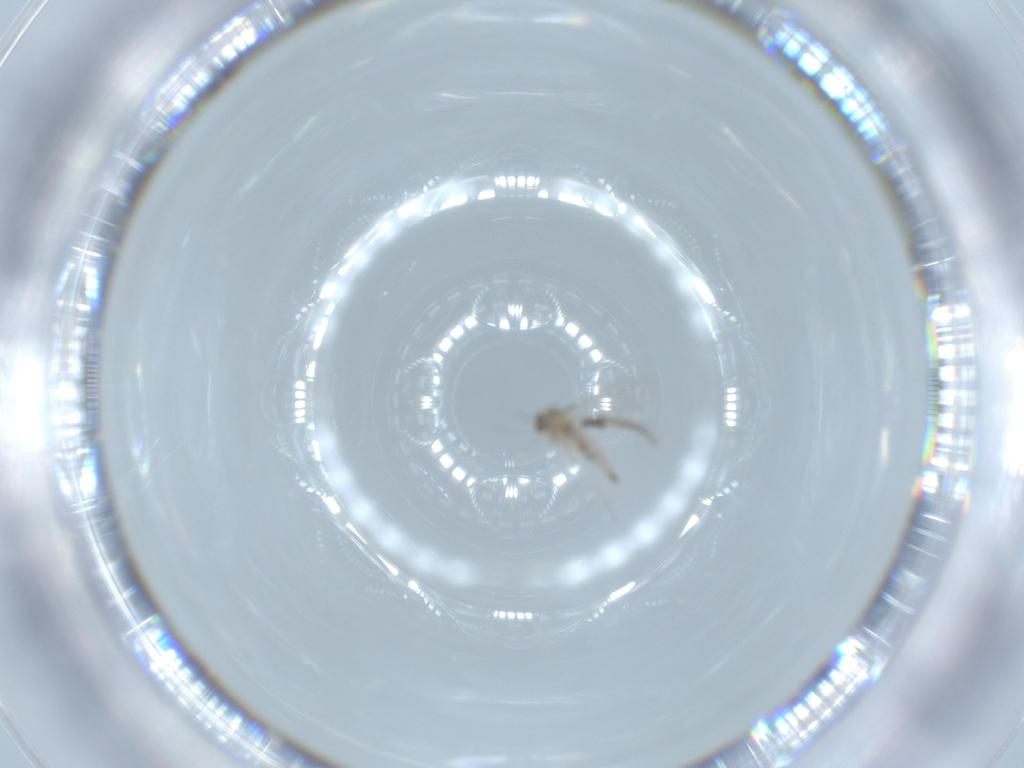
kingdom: Animalia
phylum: Arthropoda
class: Insecta
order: Diptera
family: Cecidomyiidae
